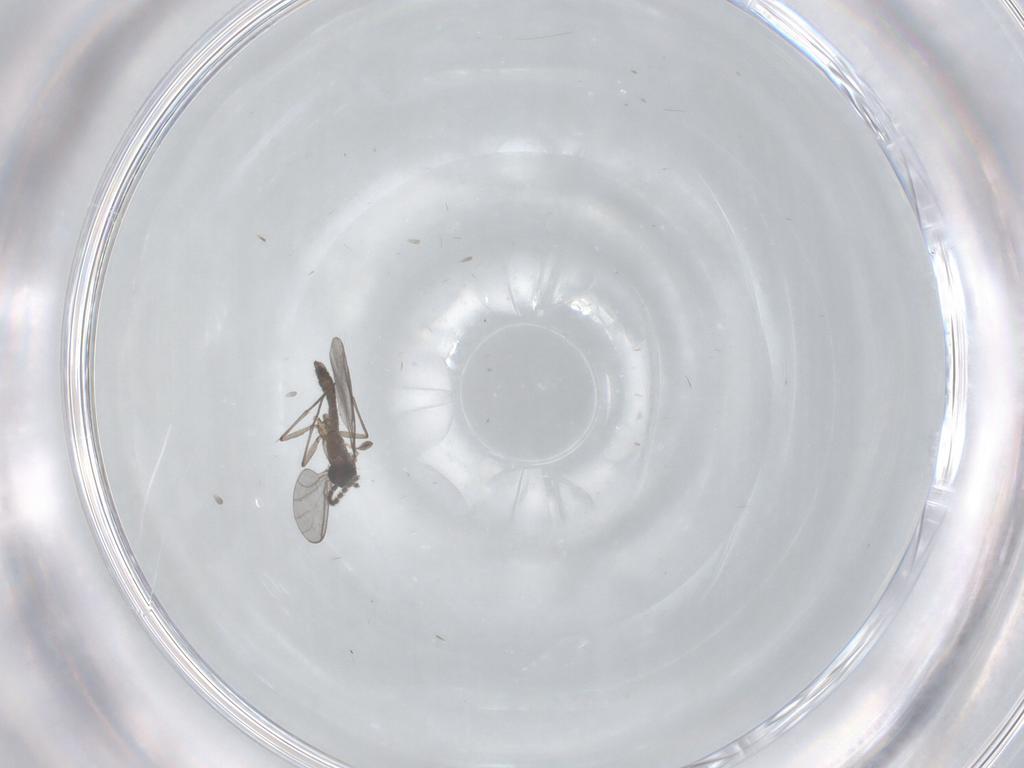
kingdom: Animalia
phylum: Arthropoda
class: Insecta
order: Diptera
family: Sciaridae
